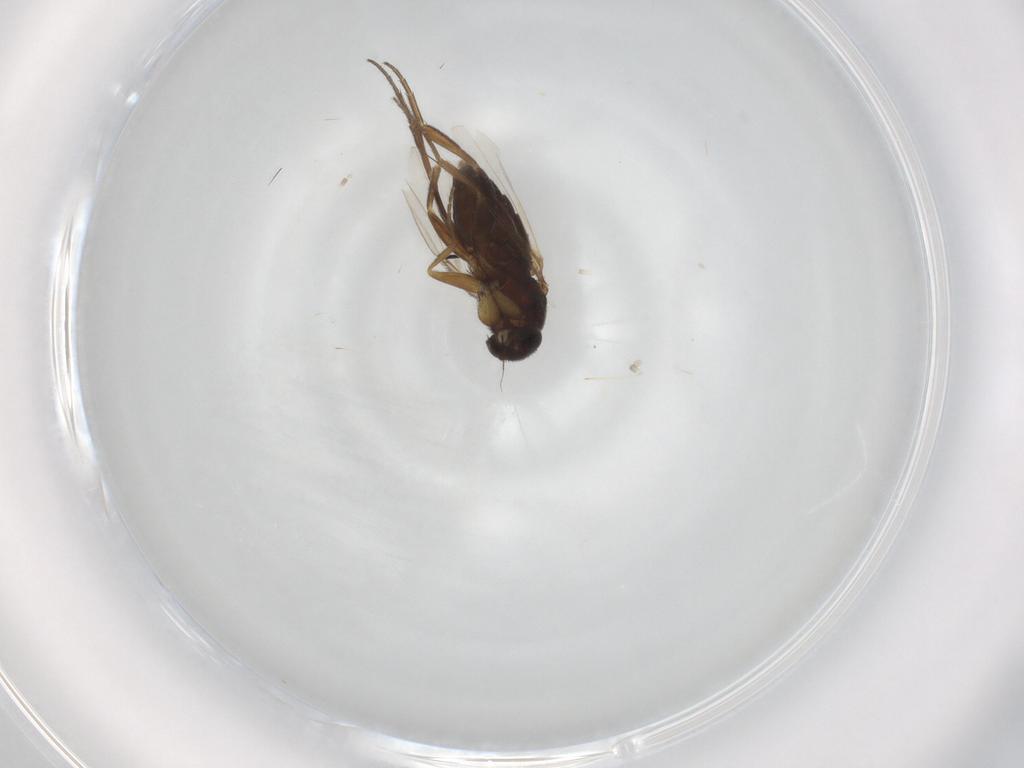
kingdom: Animalia
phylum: Arthropoda
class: Insecta
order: Diptera
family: Phoridae
